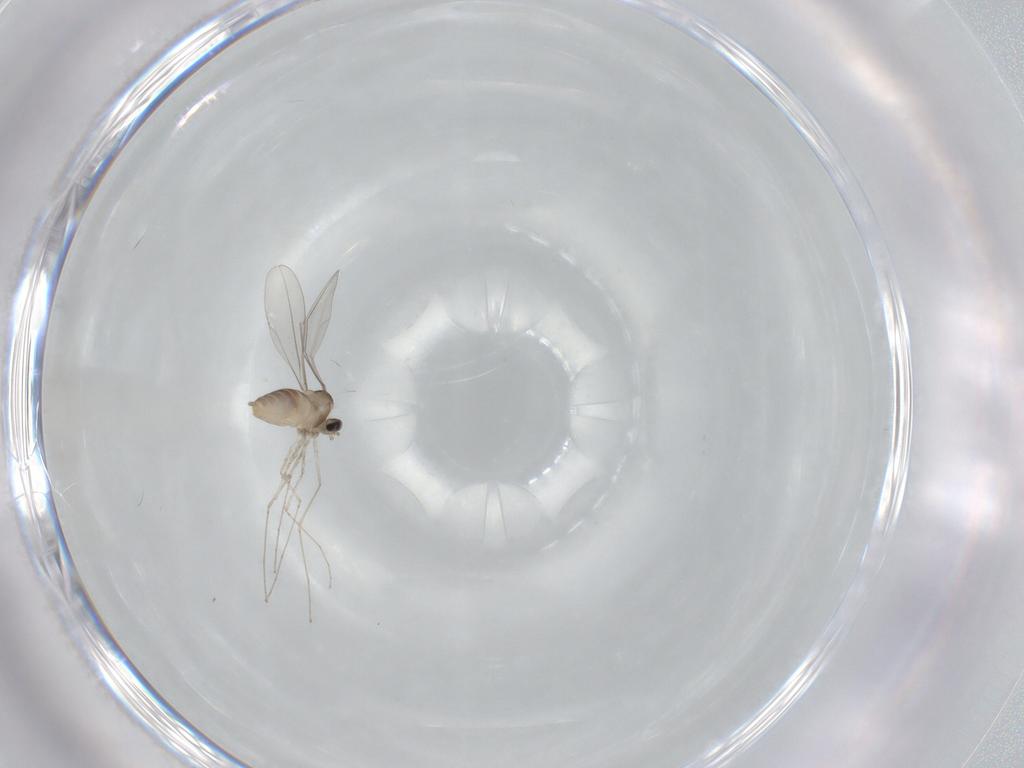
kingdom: Animalia
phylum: Arthropoda
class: Insecta
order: Diptera
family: Cecidomyiidae
